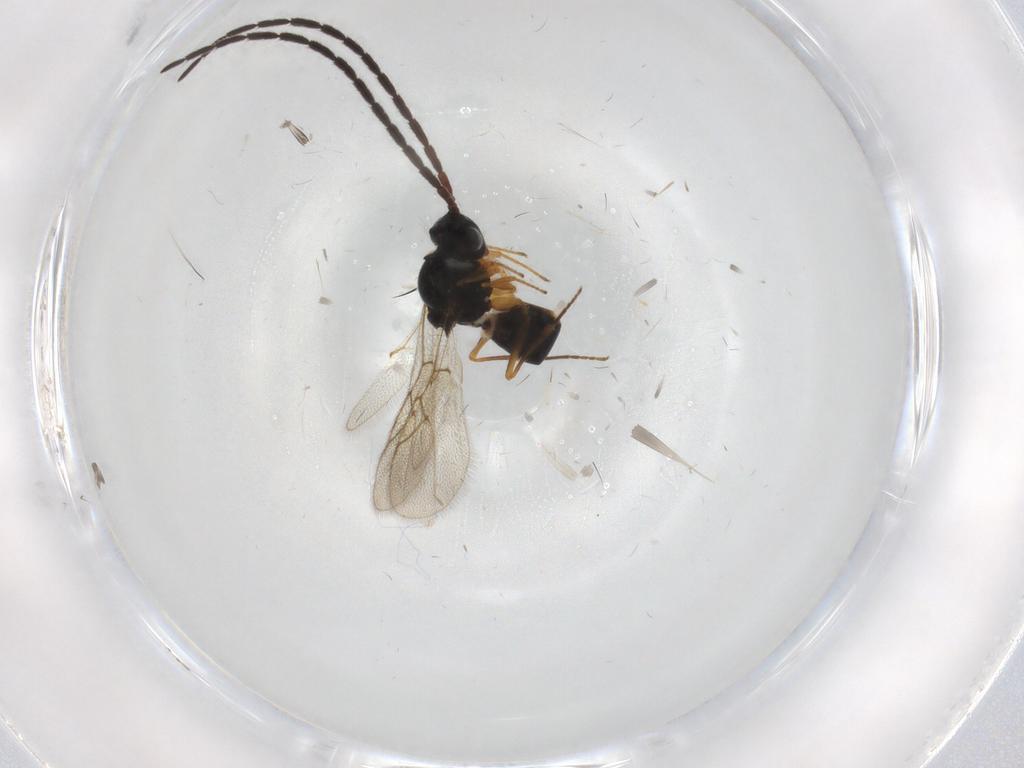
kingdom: Animalia
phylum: Arthropoda
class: Insecta
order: Hymenoptera
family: Figitidae
